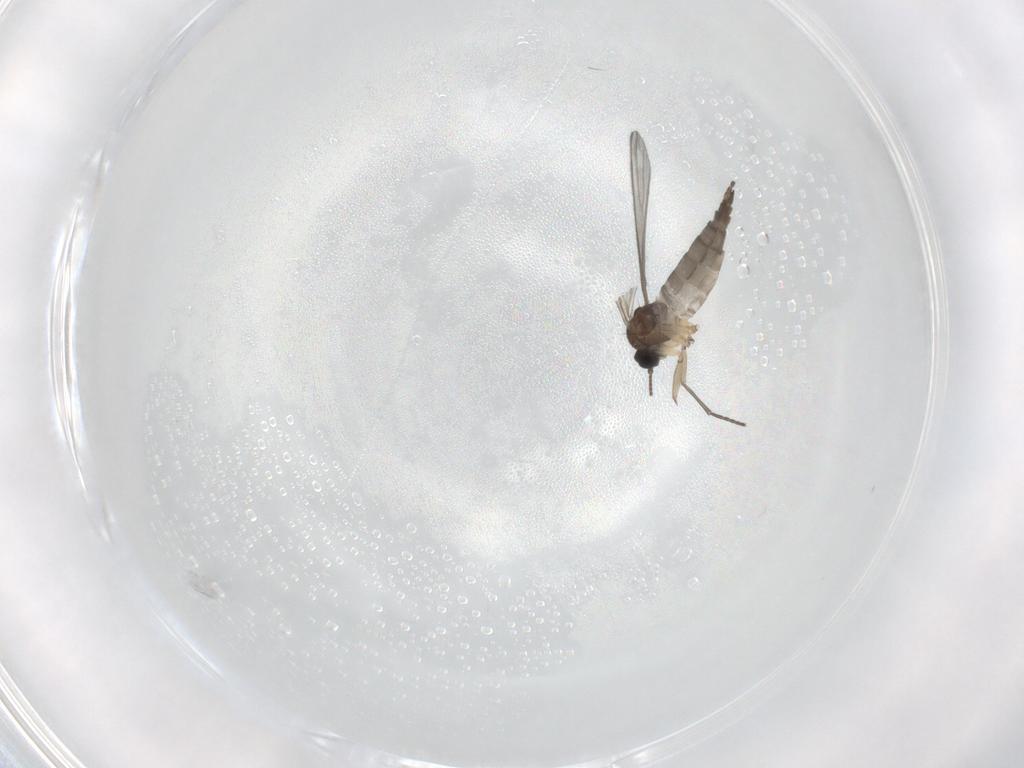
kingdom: Animalia
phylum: Arthropoda
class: Insecta
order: Diptera
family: Sciaridae
